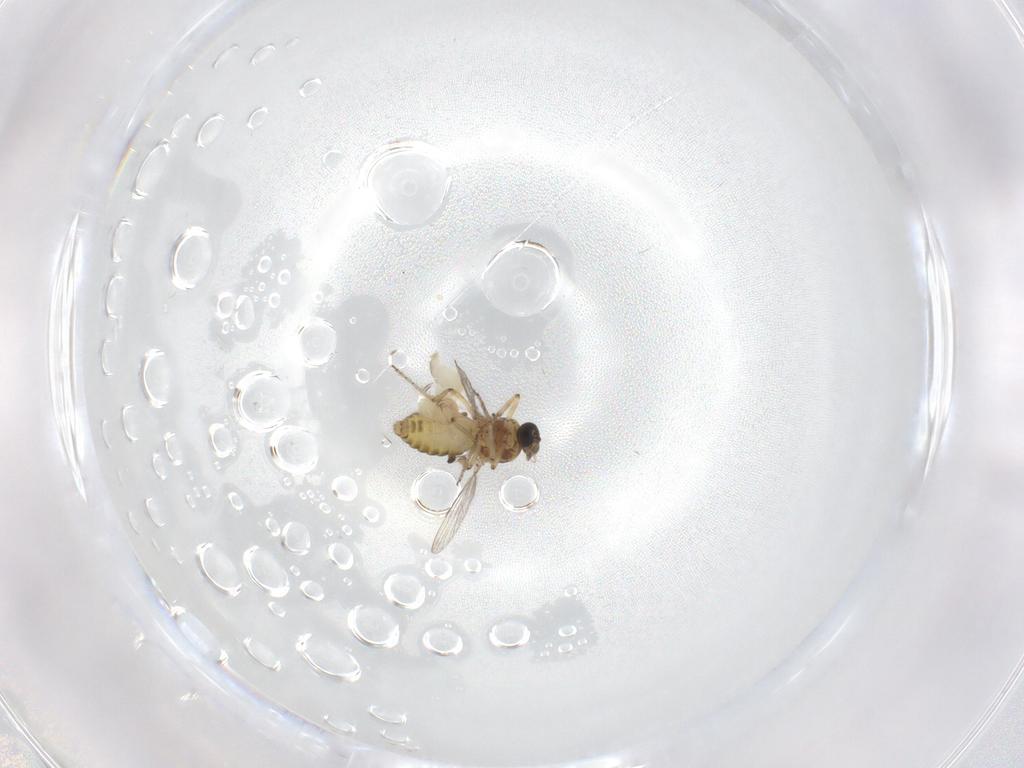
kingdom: Animalia
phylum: Arthropoda
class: Insecta
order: Diptera
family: Ceratopogonidae
